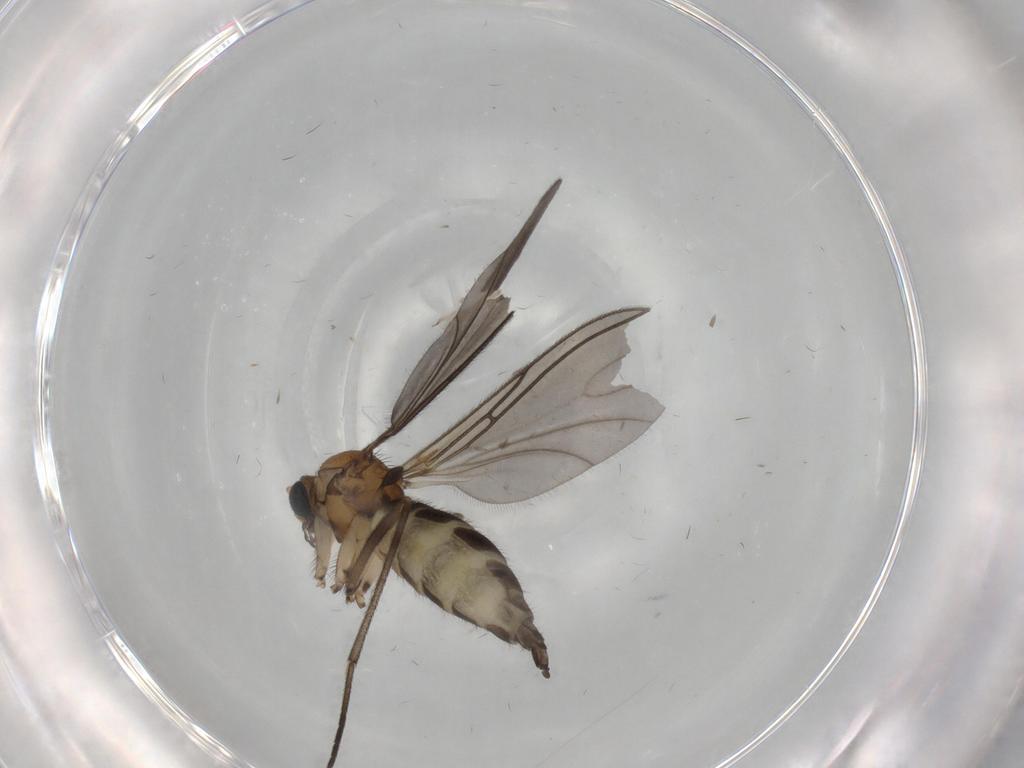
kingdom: Animalia
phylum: Arthropoda
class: Insecta
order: Diptera
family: Sciaridae
